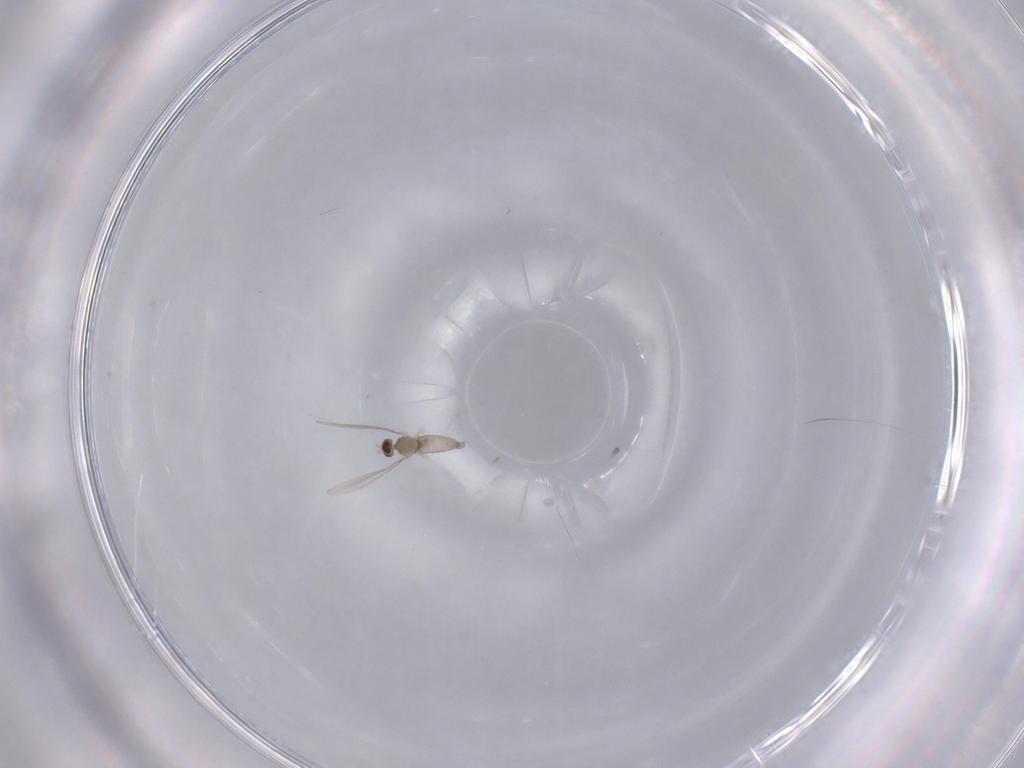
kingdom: Animalia
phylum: Arthropoda
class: Insecta
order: Diptera
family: Cecidomyiidae
